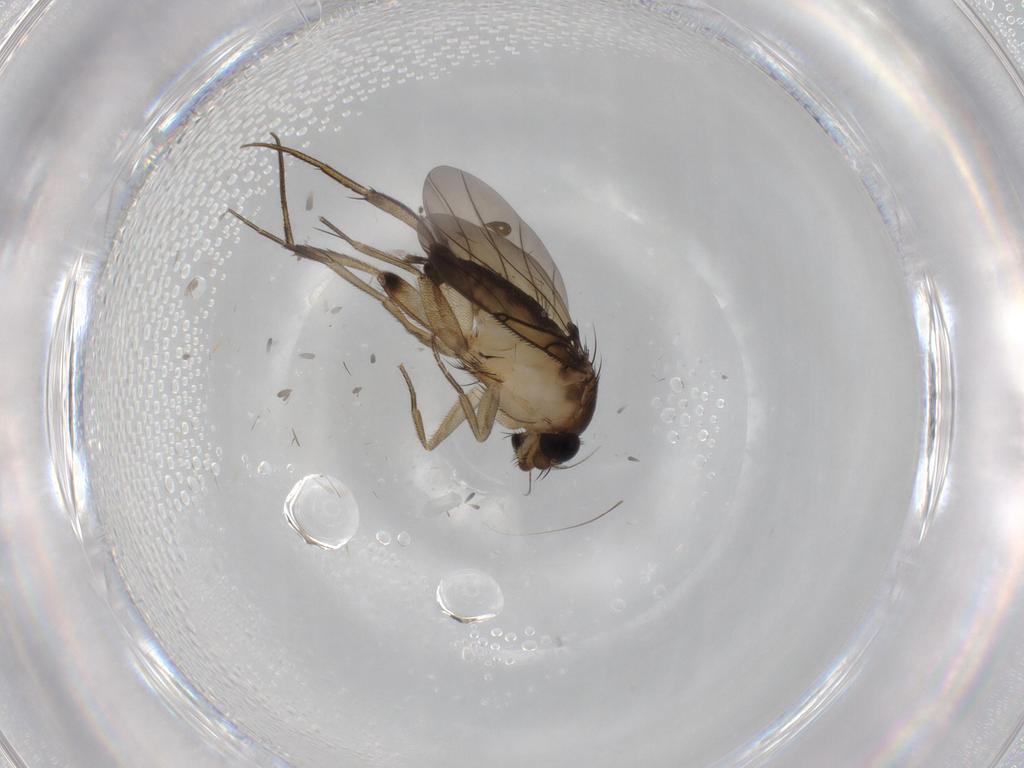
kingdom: Animalia
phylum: Arthropoda
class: Insecta
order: Diptera
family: Phoridae
